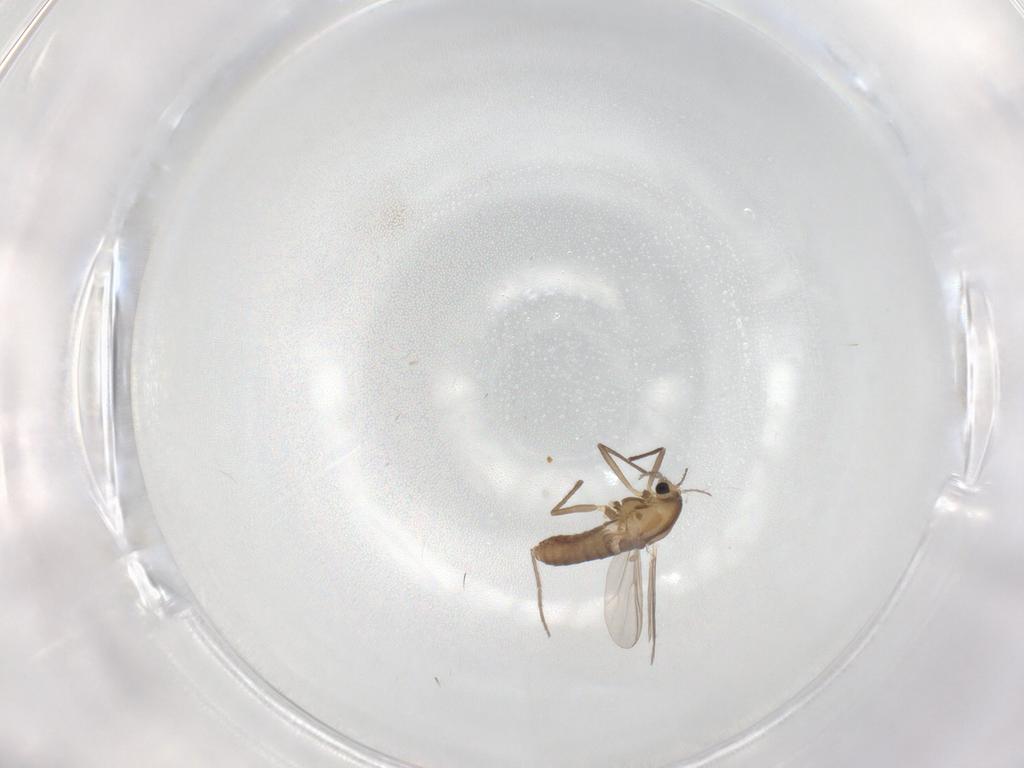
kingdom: Animalia
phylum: Arthropoda
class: Insecta
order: Diptera
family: Chironomidae
